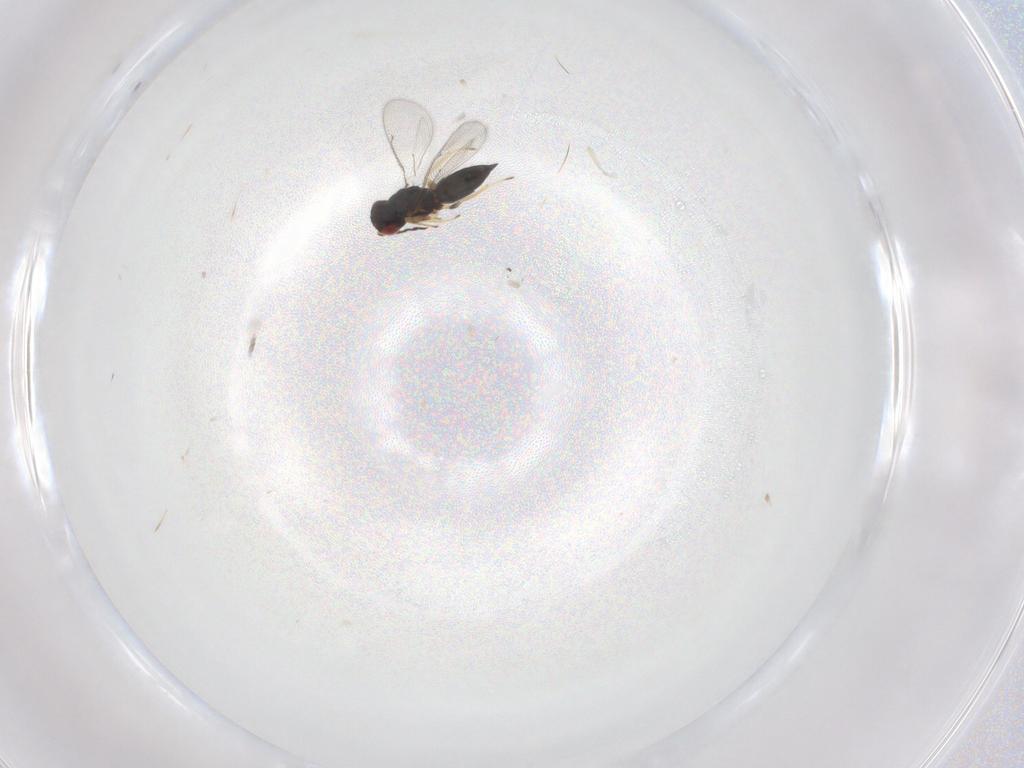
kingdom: Animalia
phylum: Arthropoda
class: Insecta
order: Hymenoptera
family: Eulophidae
